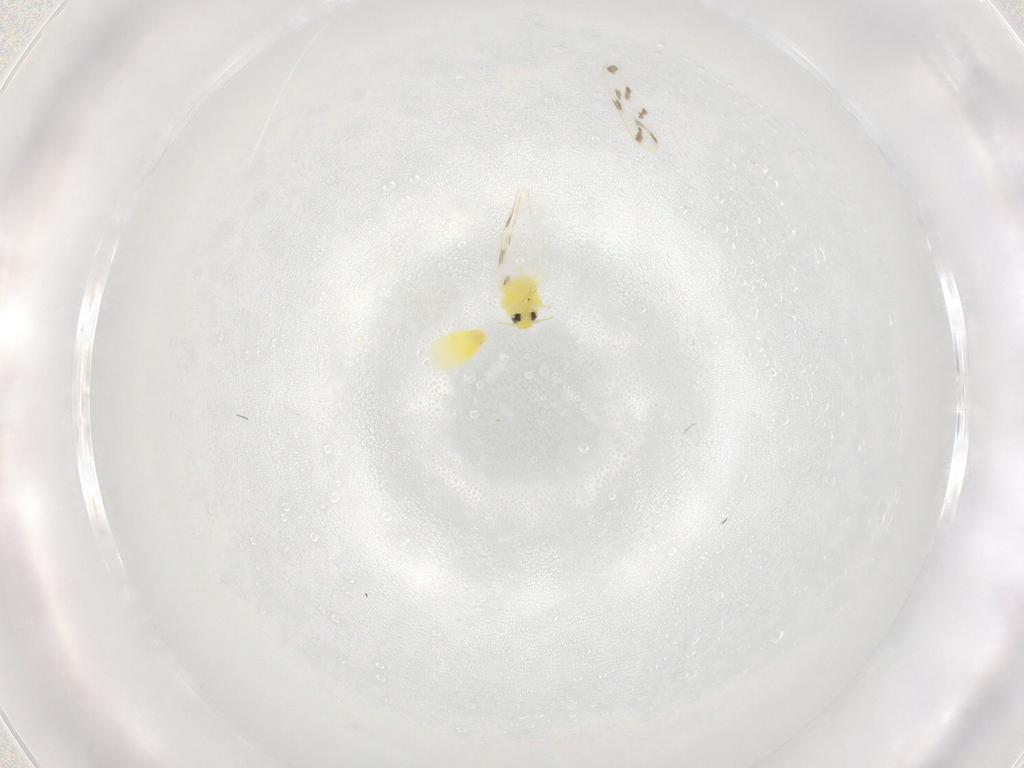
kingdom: Animalia
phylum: Arthropoda
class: Insecta
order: Hemiptera
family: Aleyrodidae
